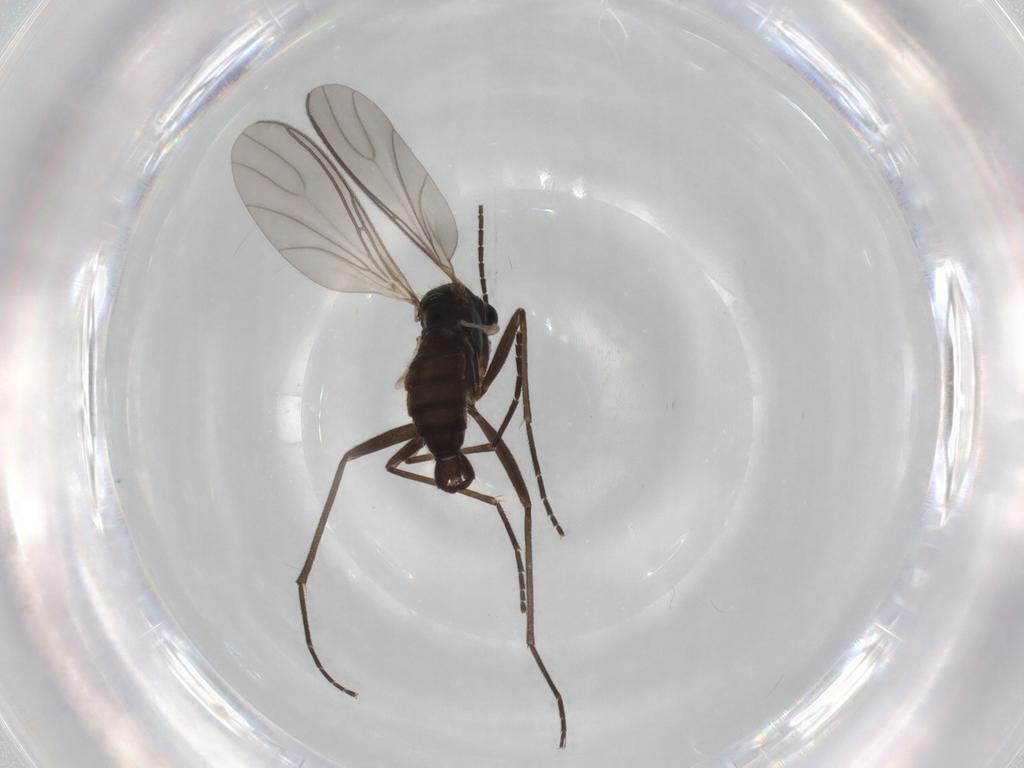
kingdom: Animalia
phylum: Arthropoda
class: Insecta
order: Diptera
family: Sciaridae
